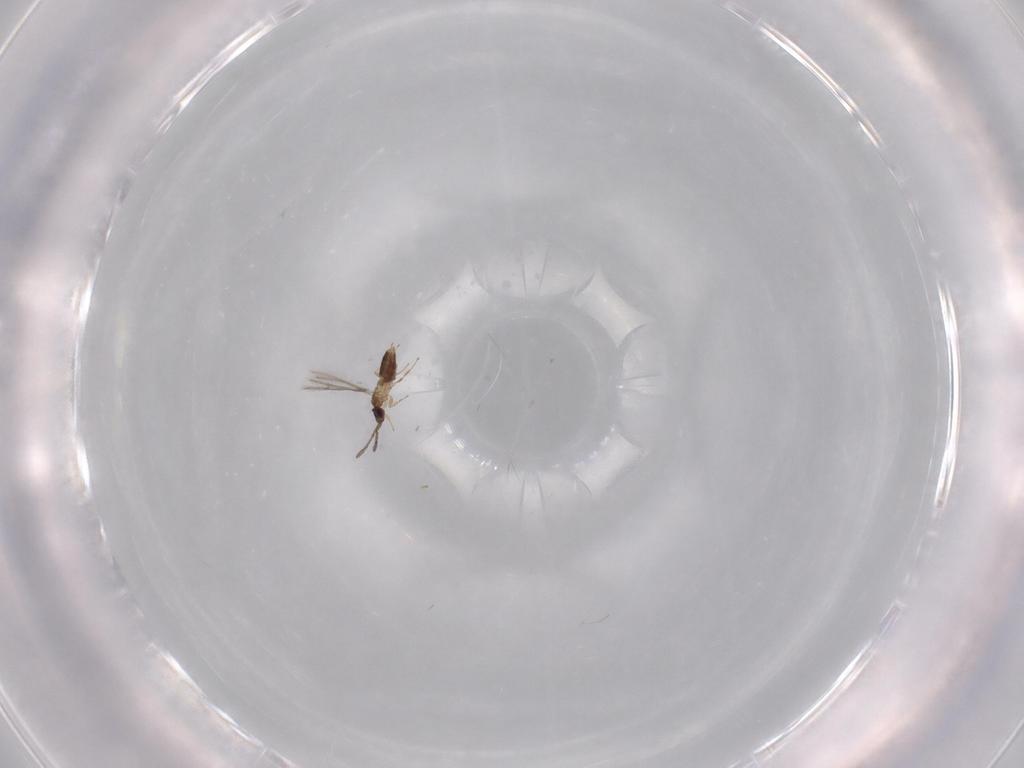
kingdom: Animalia
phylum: Arthropoda
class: Insecta
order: Hymenoptera
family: Mymaridae
